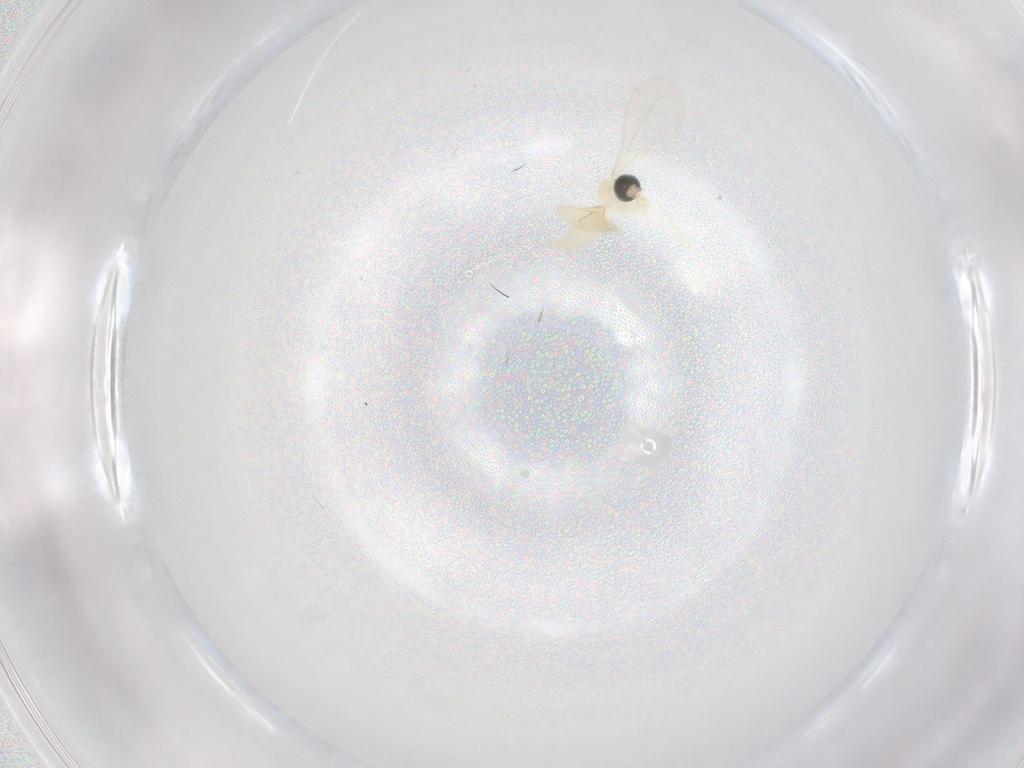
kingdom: Animalia
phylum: Arthropoda
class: Insecta
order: Diptera
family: Cecidomyiidae
